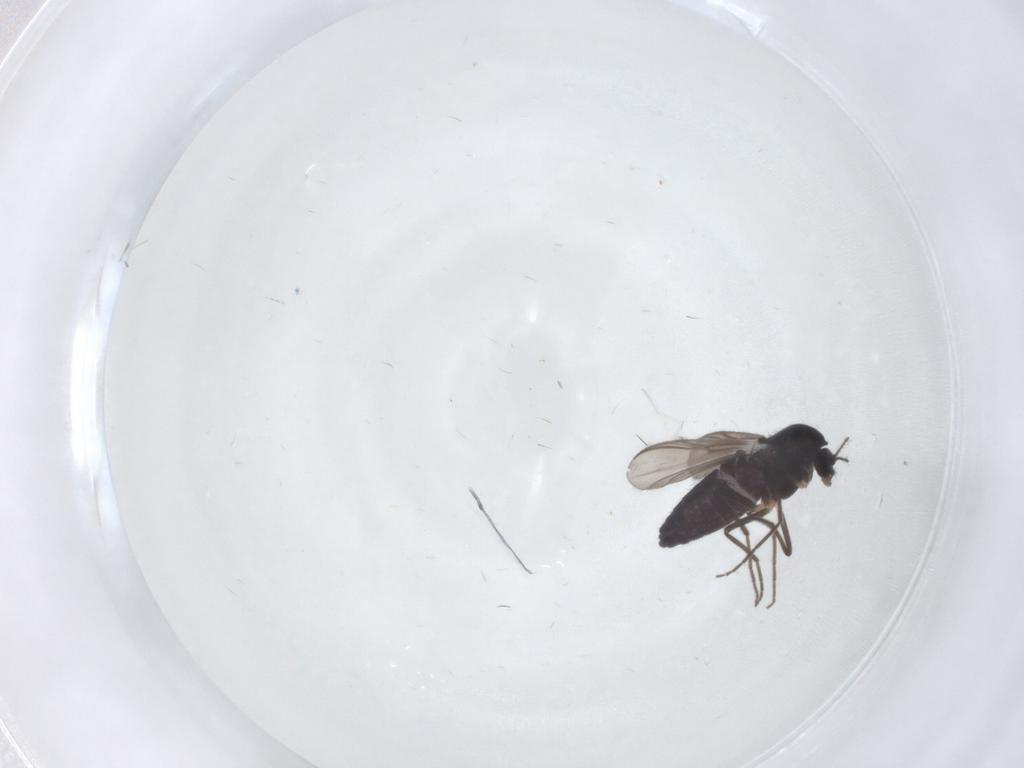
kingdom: Animalia
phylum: Arthropoda
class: Insecta
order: Diptera
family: Chironomidae
